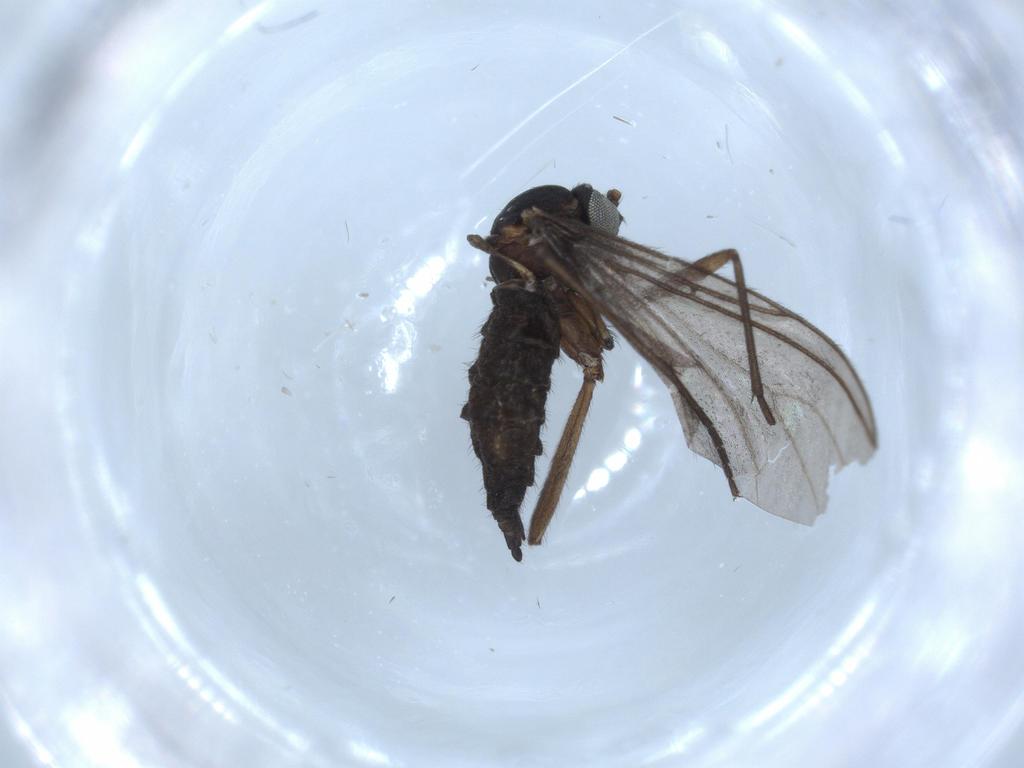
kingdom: Animalia
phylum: Arthropoda
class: Insecta
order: Diptera
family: Sciaridae
